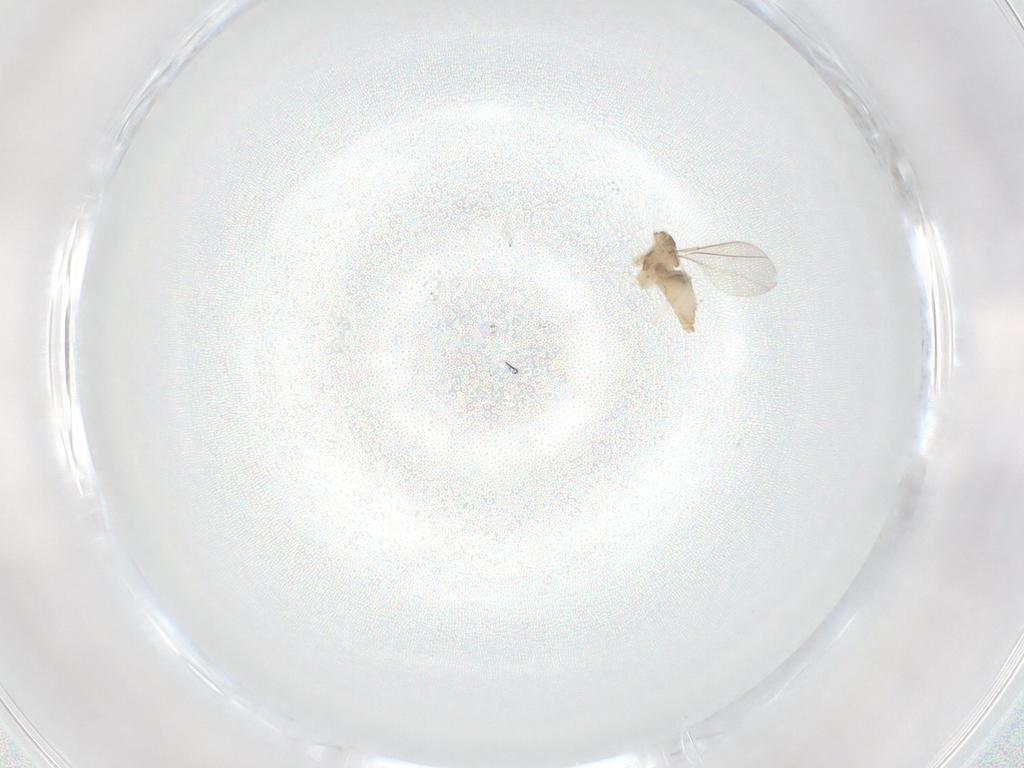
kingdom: Animalia
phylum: Arthropoda
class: Insecta
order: Diptera
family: Cecidomyiidae
